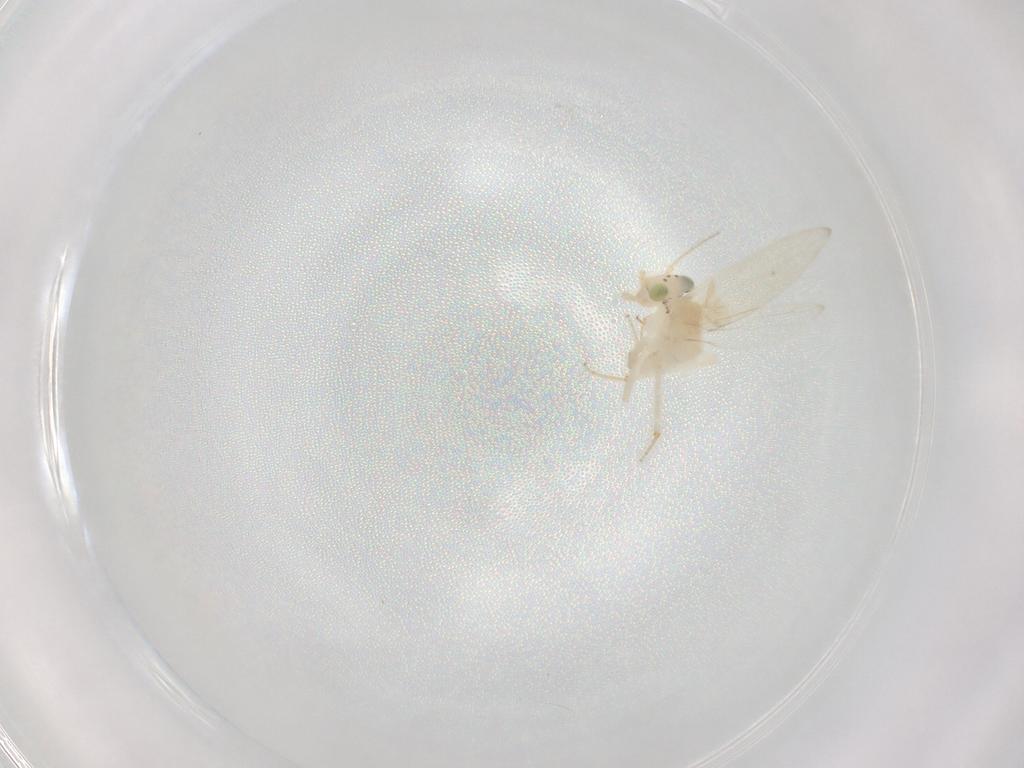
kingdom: Animalia
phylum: Arthropoda
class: Insecta
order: Psocodea
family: Lepidopsocidae
